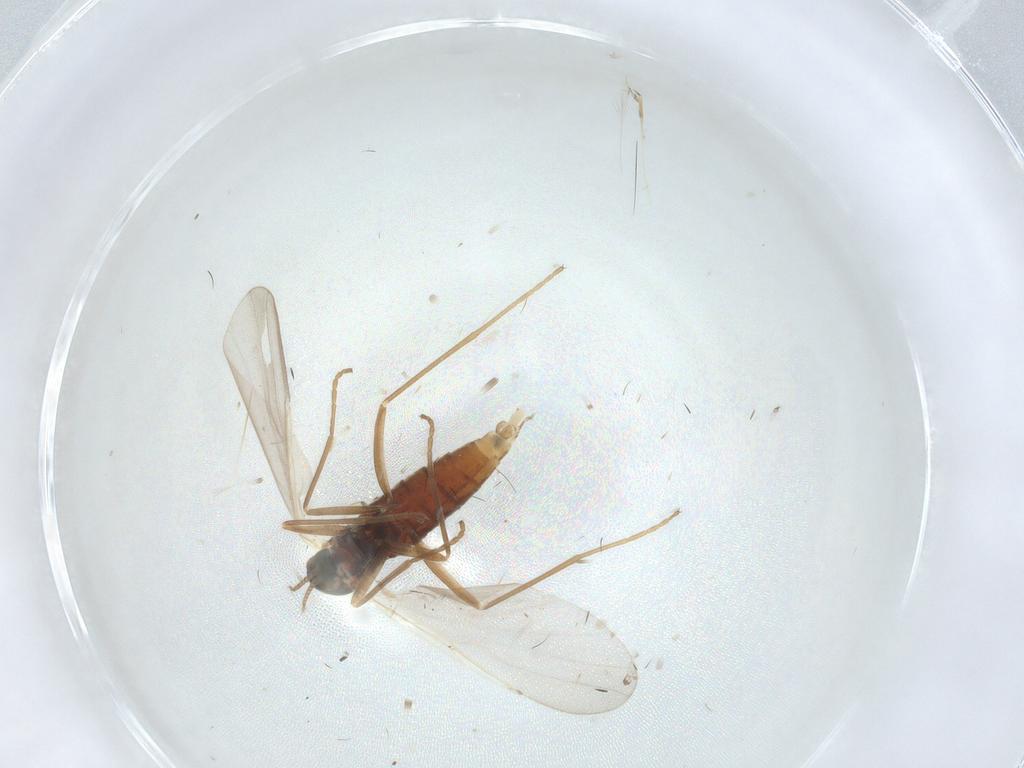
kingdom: Animalia
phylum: Arthropoda
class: Insecta
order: Diptera
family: Cecidomyiidae
